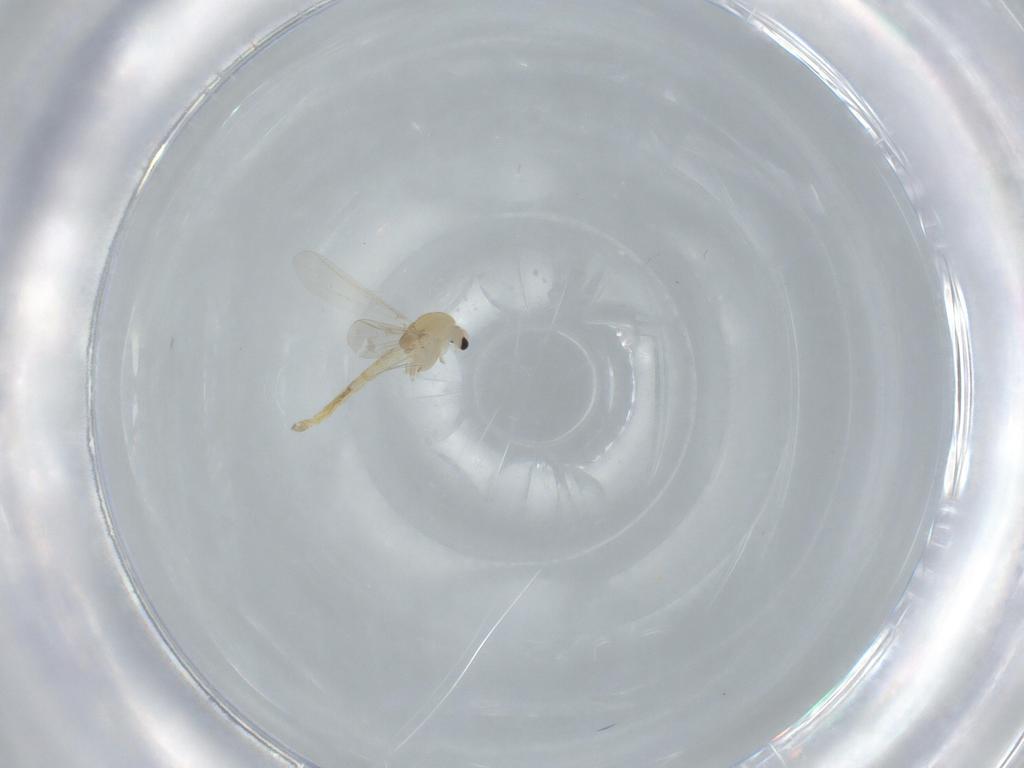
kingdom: Animalia
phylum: Arthropoda
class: Insecta
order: Diptera
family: Chironomidae
